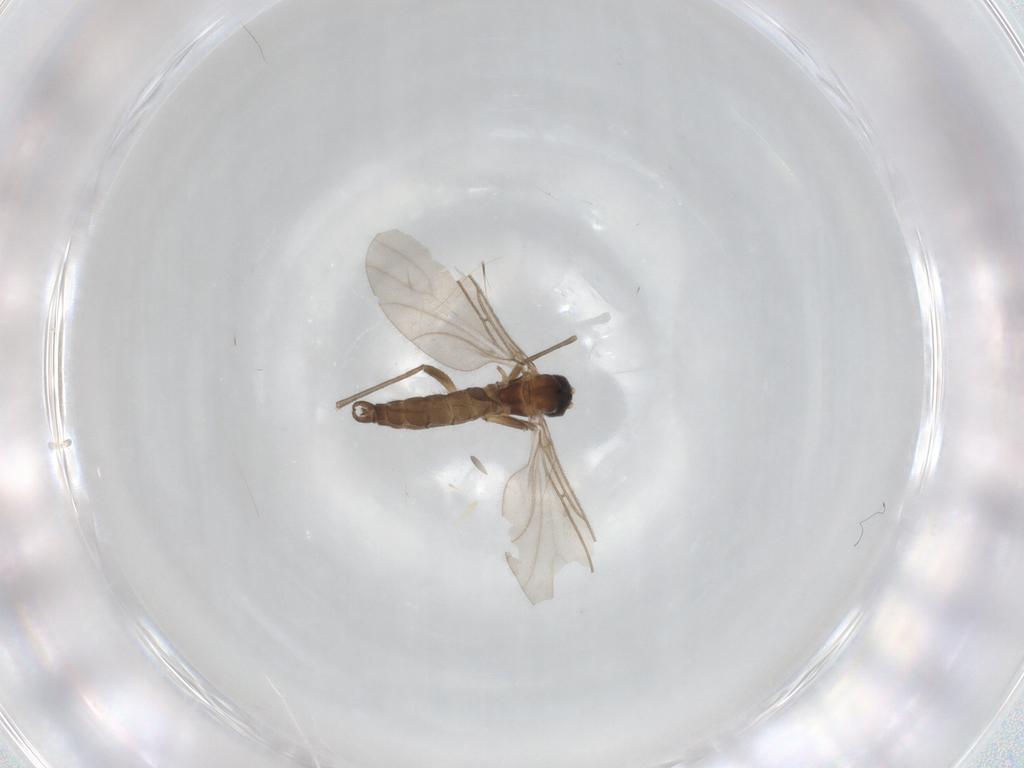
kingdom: Animalia
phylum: Arthropoda
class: Insecta
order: Diptera
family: Sciaridae
